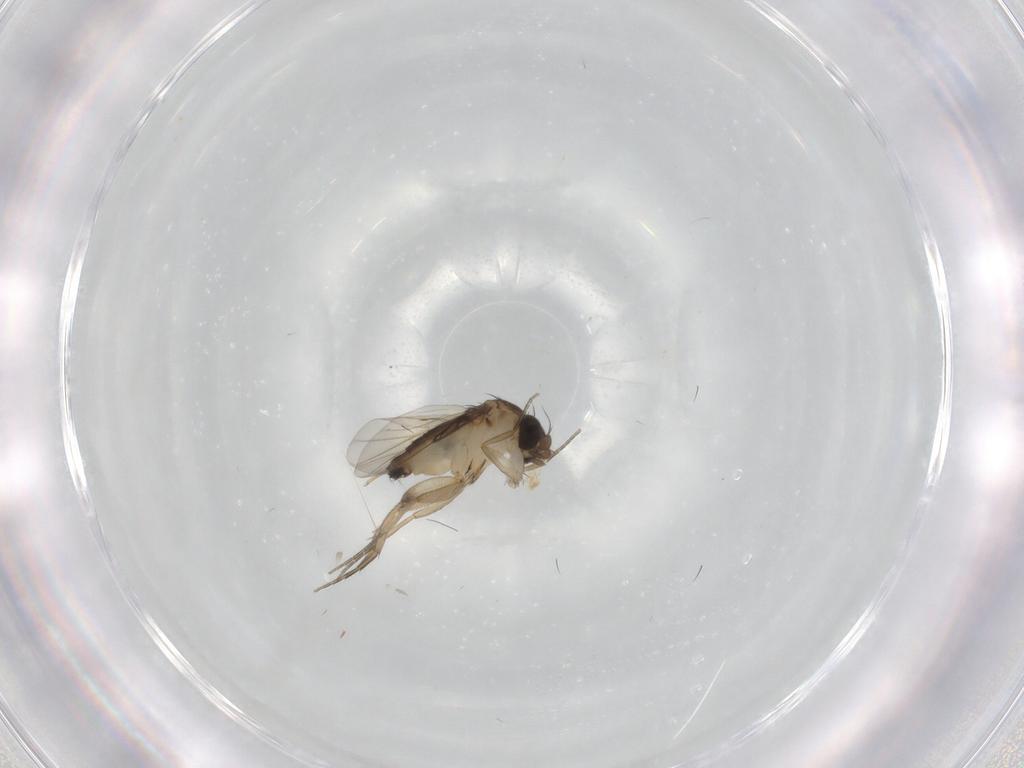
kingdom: Animalia
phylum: Arthropoda
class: Insecta
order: Diptera
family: Phoridae
